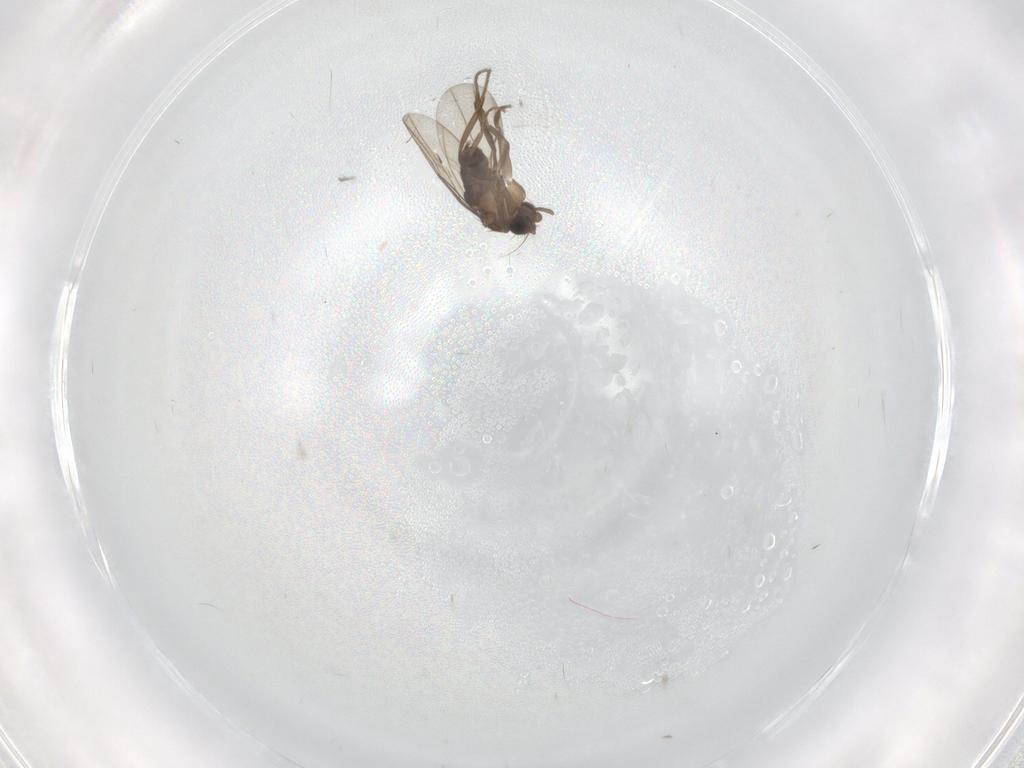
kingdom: Animalia
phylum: Arthropoda
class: Insecta
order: Diptera
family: Ceratopogonidae
